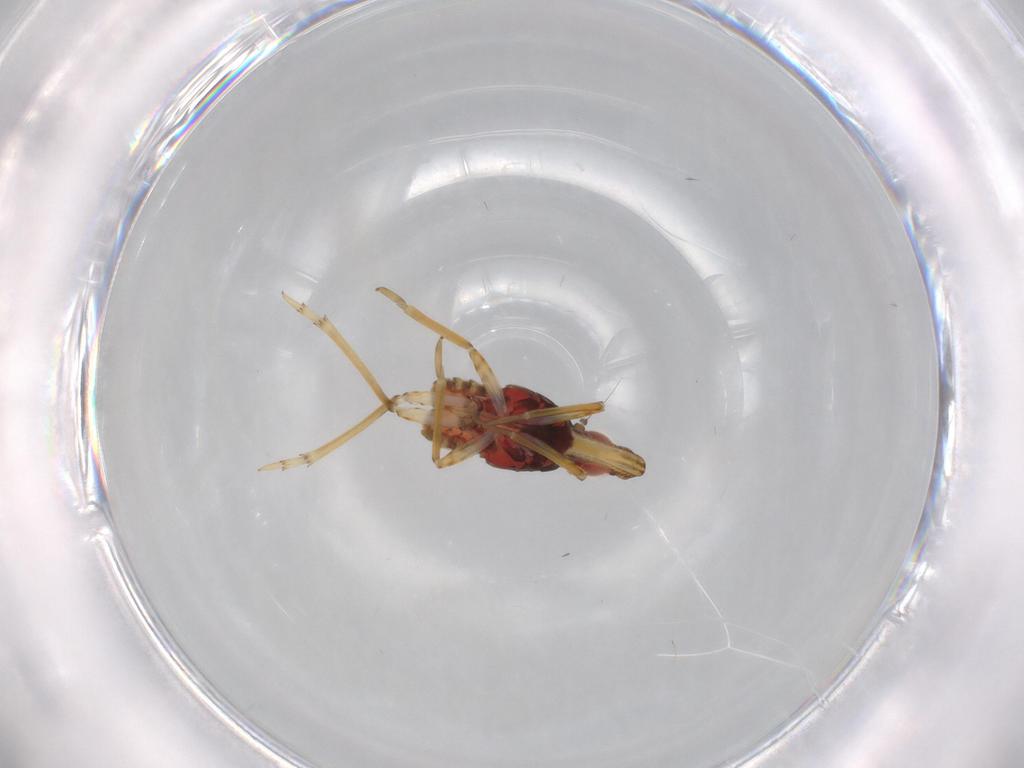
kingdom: Animalia
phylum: Arthropoda
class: Insecta
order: Hemiptera
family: Fulgoroidea_incertae_sedis
